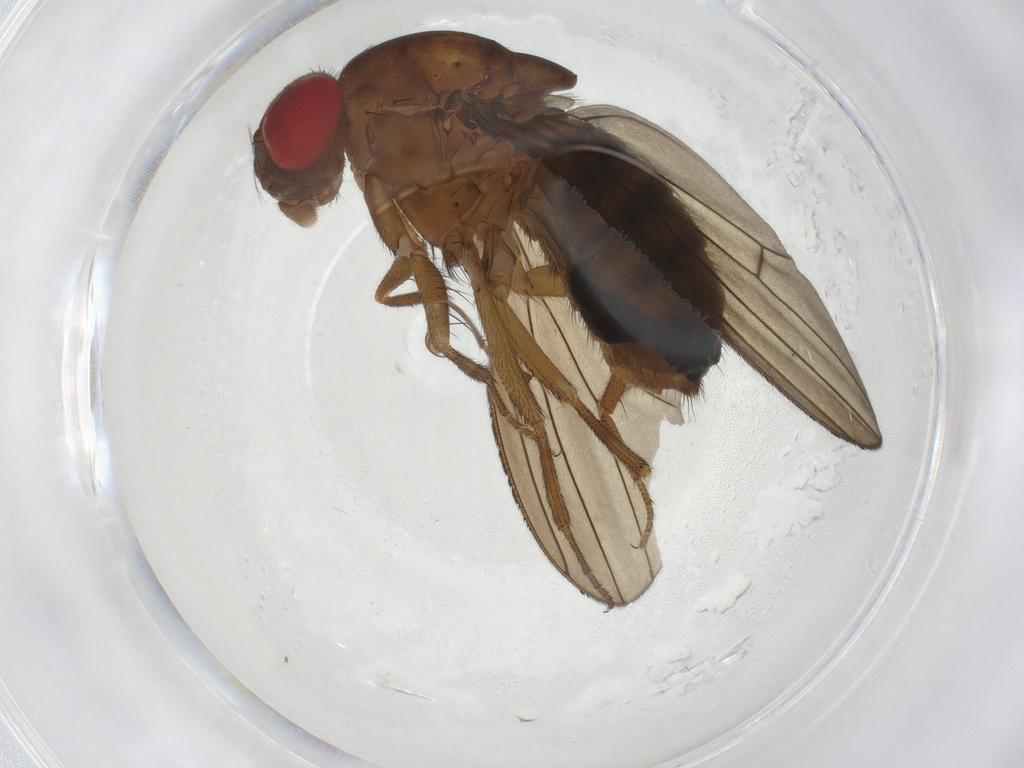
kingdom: Animalia
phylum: Arthropoda
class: Insecta
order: Diptera
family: Drosophilidae
